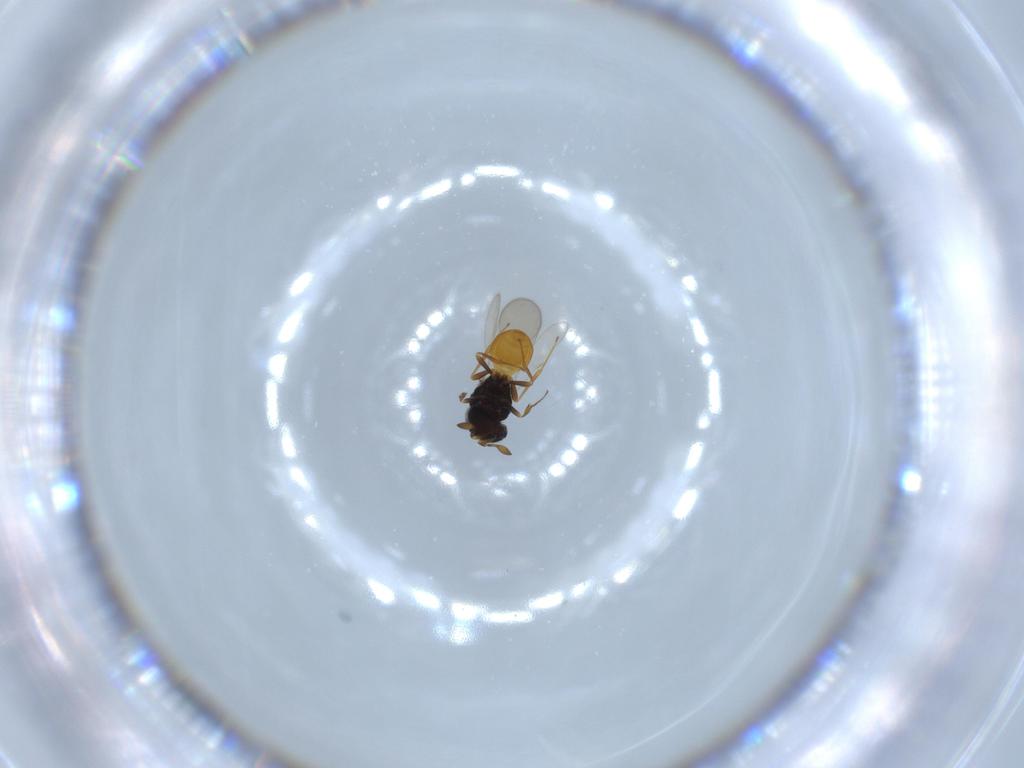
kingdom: Animalia
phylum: Arthropoda
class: Insecta
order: Hymenoptera
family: Scelionidae
